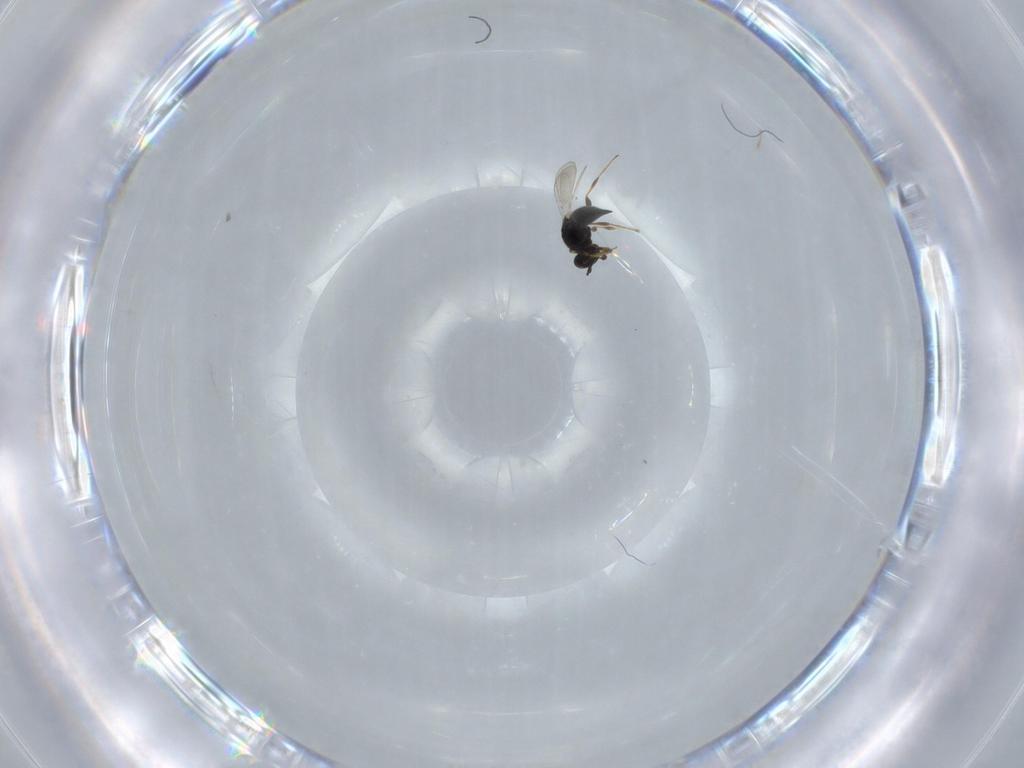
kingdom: Animalia
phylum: Arthropoda
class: Insecta
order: Hymenoptera
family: Platygastridae
